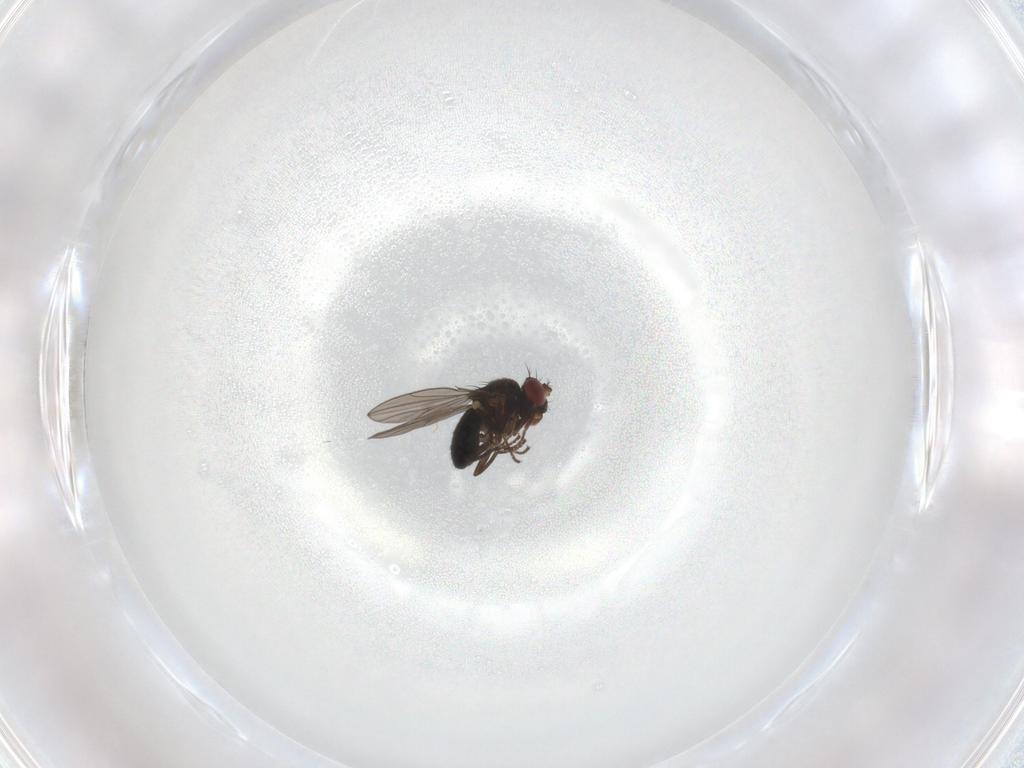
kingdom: Animalia
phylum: Arthropoda
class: Insecta
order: Diptera
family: Ephydridae
